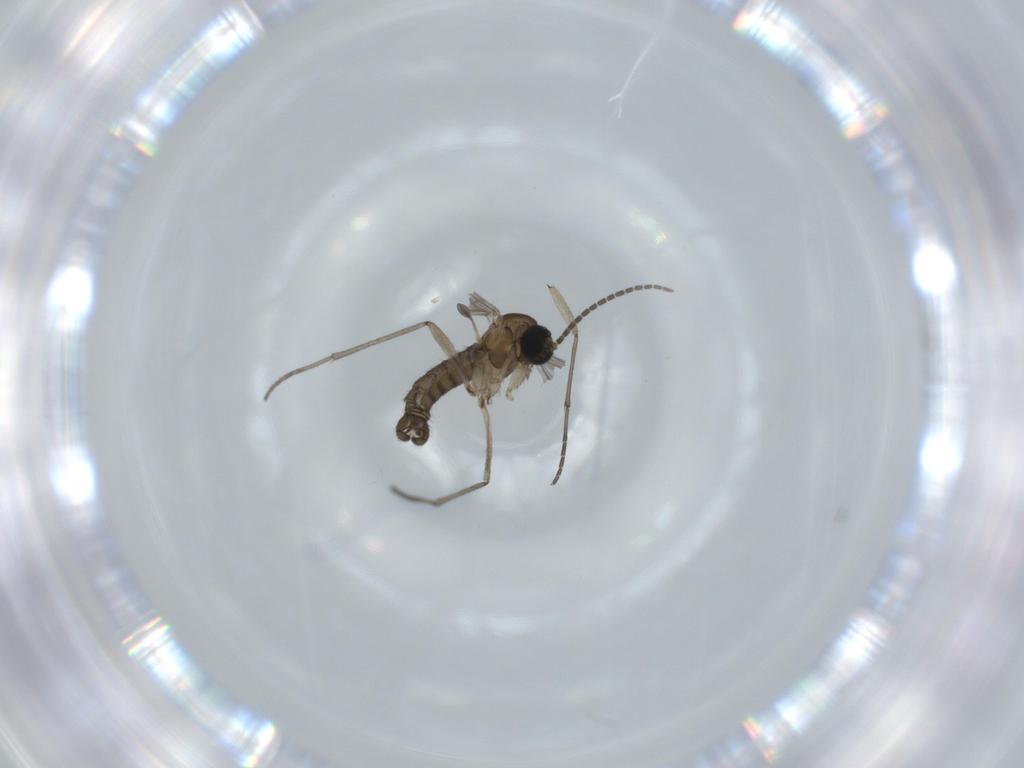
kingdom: Animalia
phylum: Arthropoda
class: Insecta
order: Diptera
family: Sciaridae
